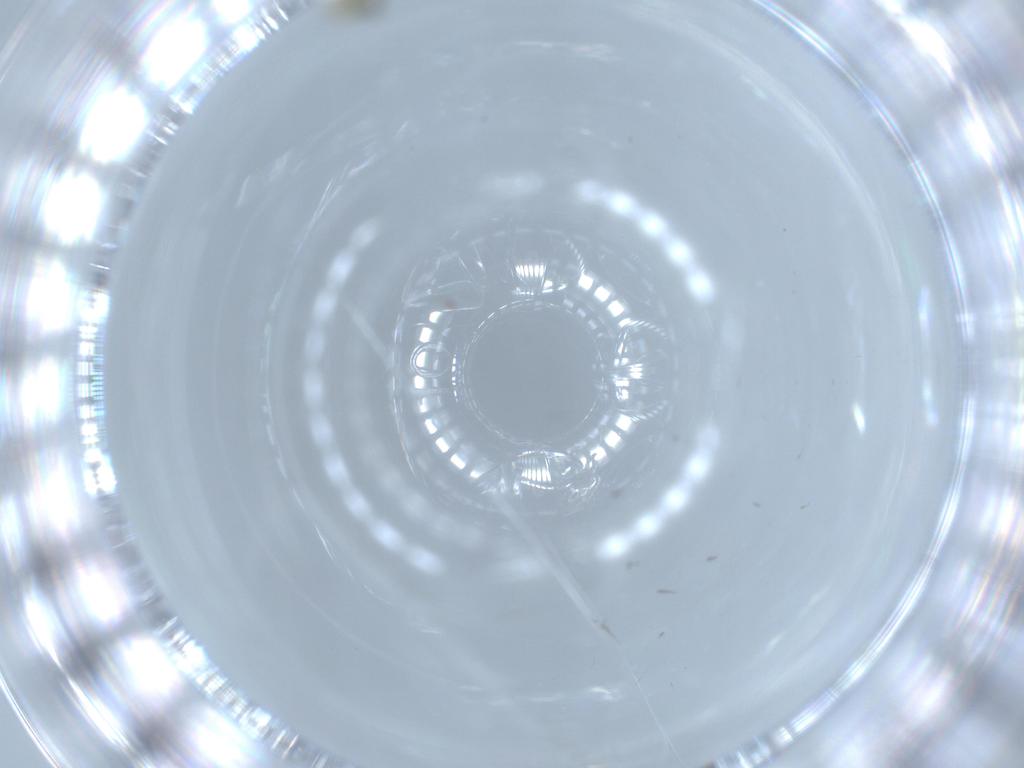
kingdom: Animalia
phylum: Arthropoda
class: Insecta
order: Diptera
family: Cecidomyiidae
